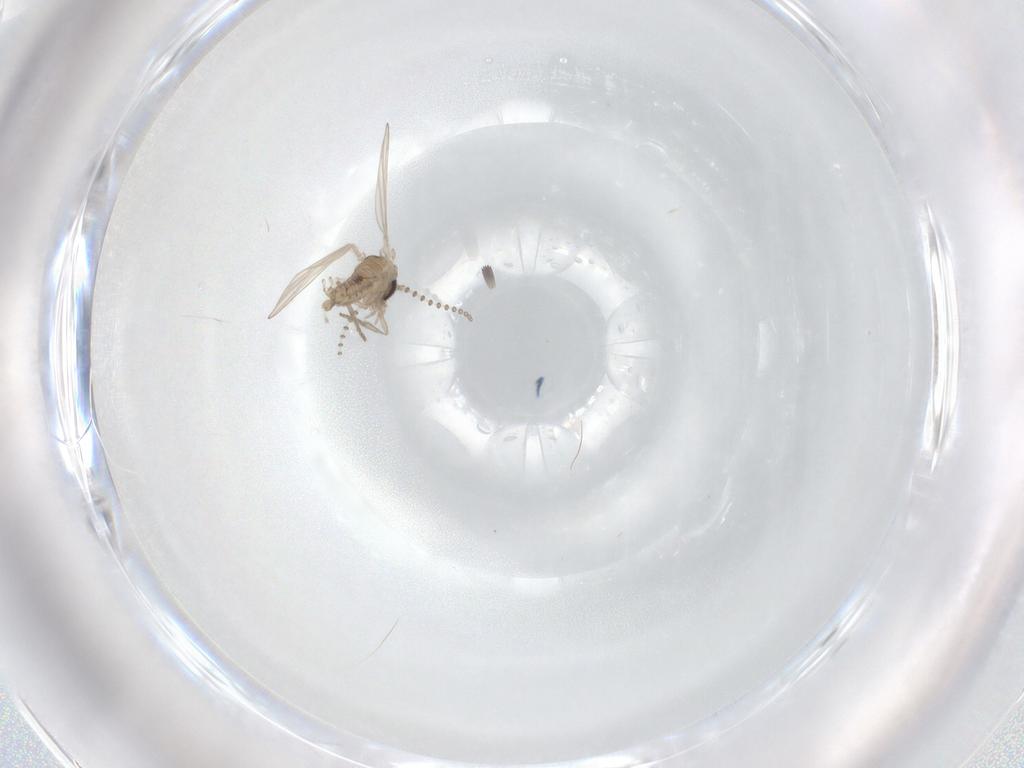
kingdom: Animalia
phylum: Arthropoda
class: Insecta
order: Diptera
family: Psychodidae
